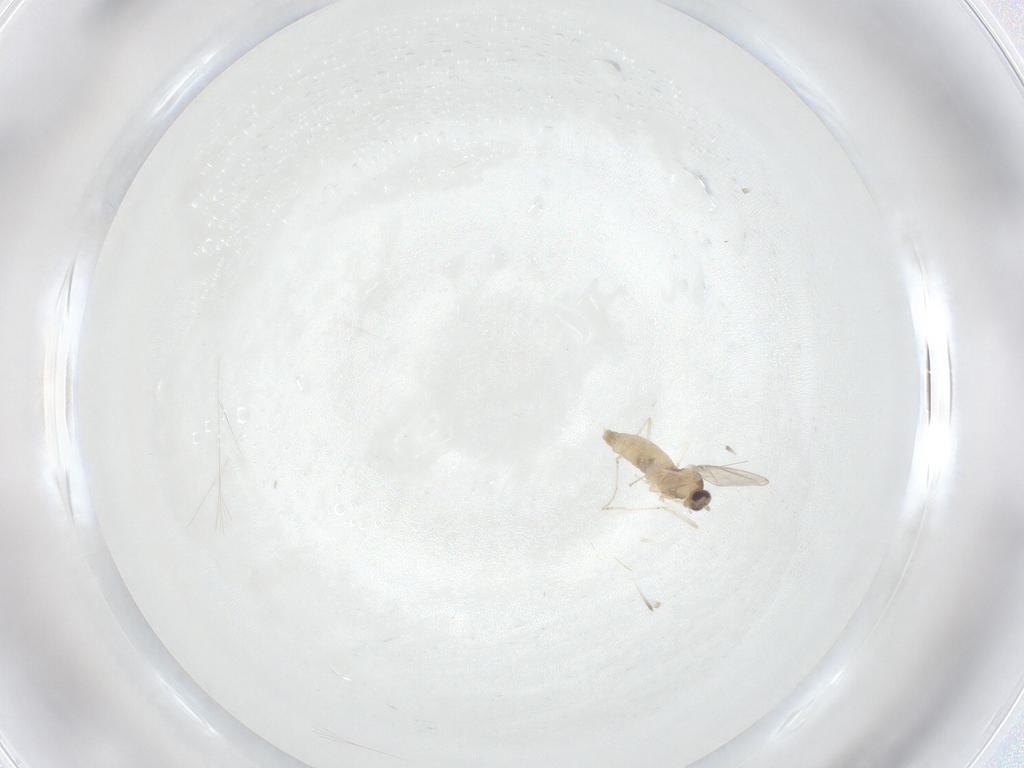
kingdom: Animalia
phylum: Arthropoda
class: Insecta
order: Diptera
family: Cecidomyiidae
